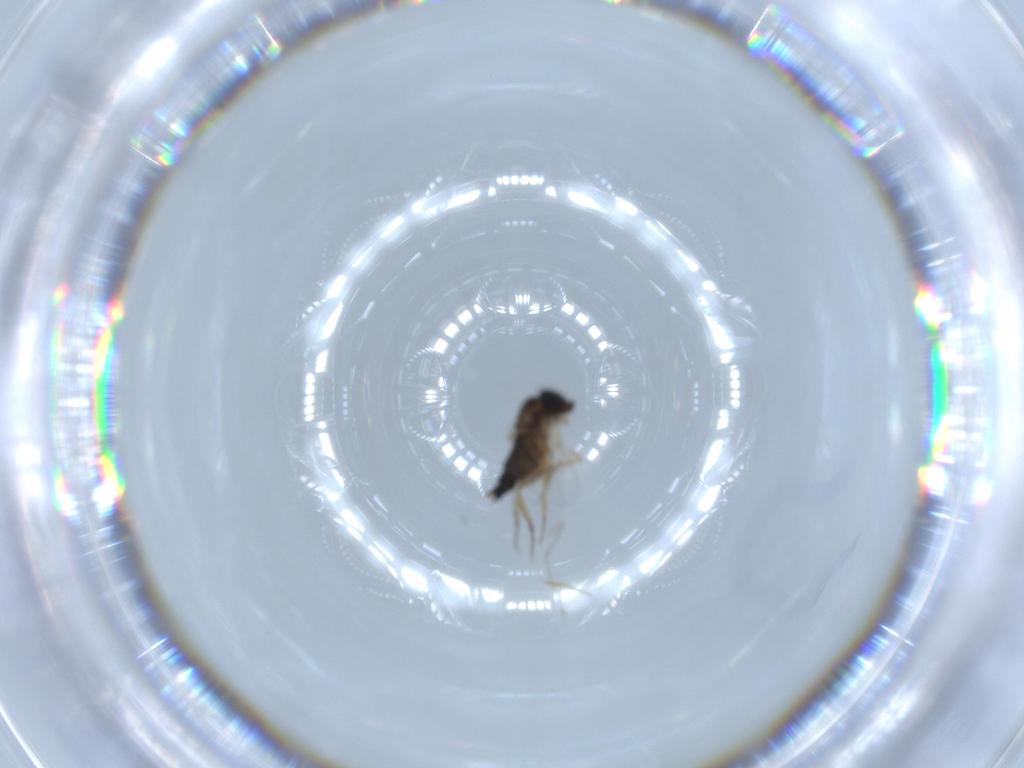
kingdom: Animalia
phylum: Arthropoda
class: Insecta
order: Diptera
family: Phoridae
